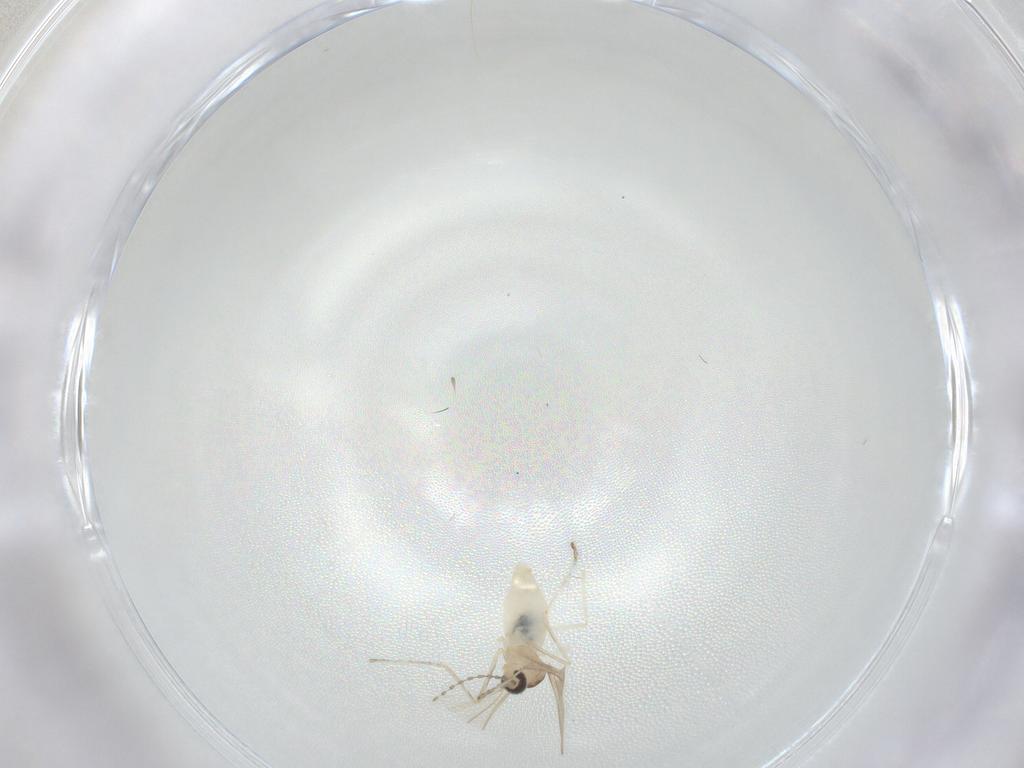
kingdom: Animalia
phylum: Arthropoda
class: Insecta
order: Diptera
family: Cecidomyiidae
